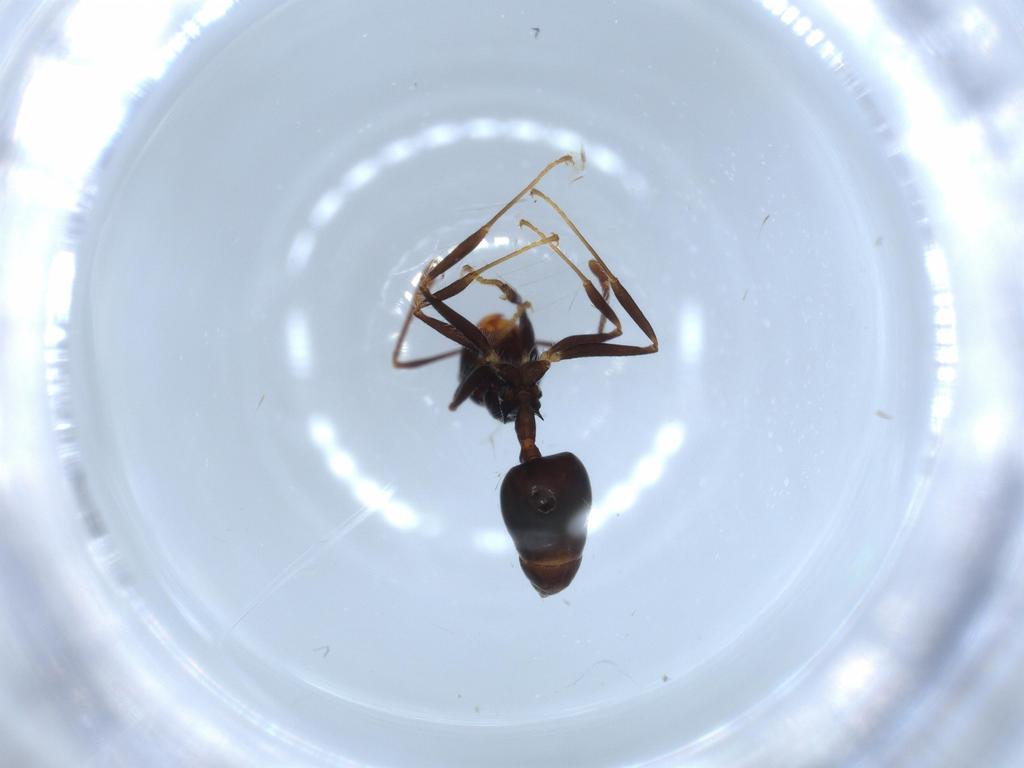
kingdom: Animalia
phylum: Arthropoda
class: Insecta
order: Hymenoptera
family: Formicidae
